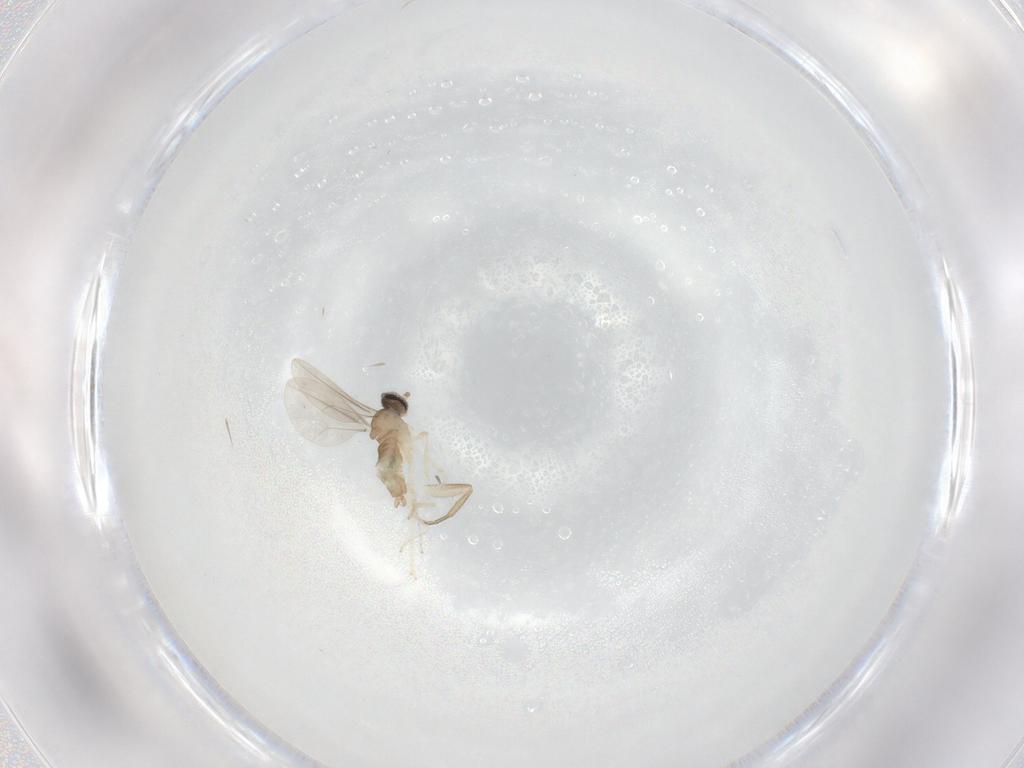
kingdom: Animalia
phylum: Arthropoda
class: Insecta
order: Diptera
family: Cecidomyiidae
